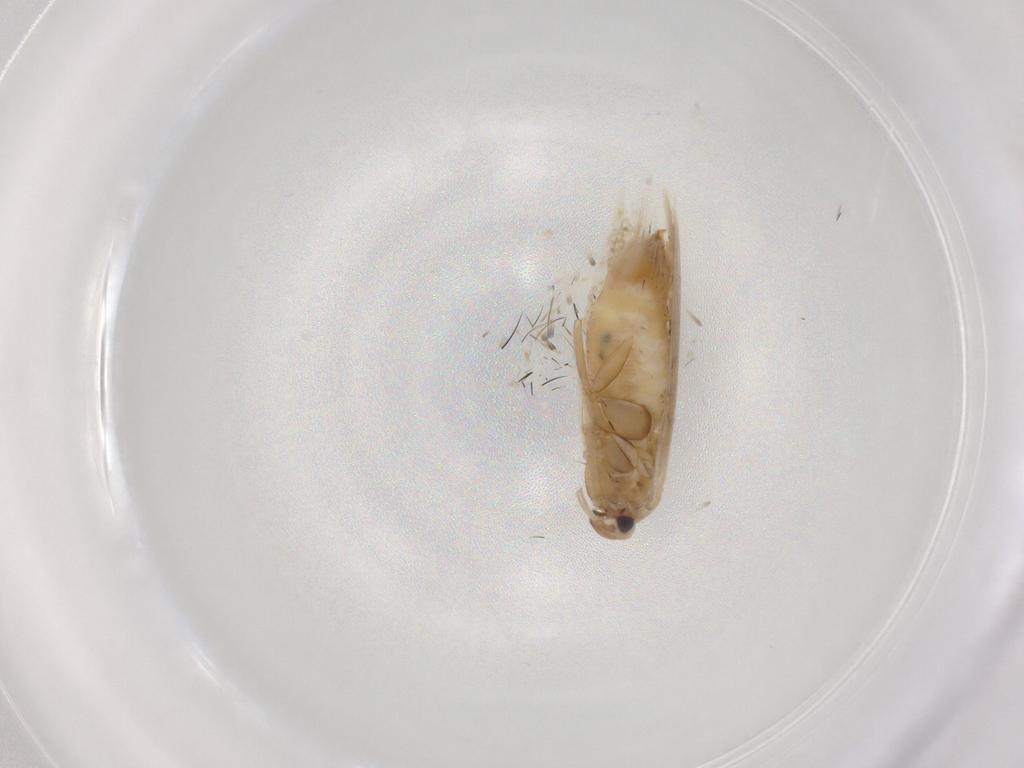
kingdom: Animalia
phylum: Arthropoda
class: Insecta
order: Lepidoptera
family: Bucculatricidae
